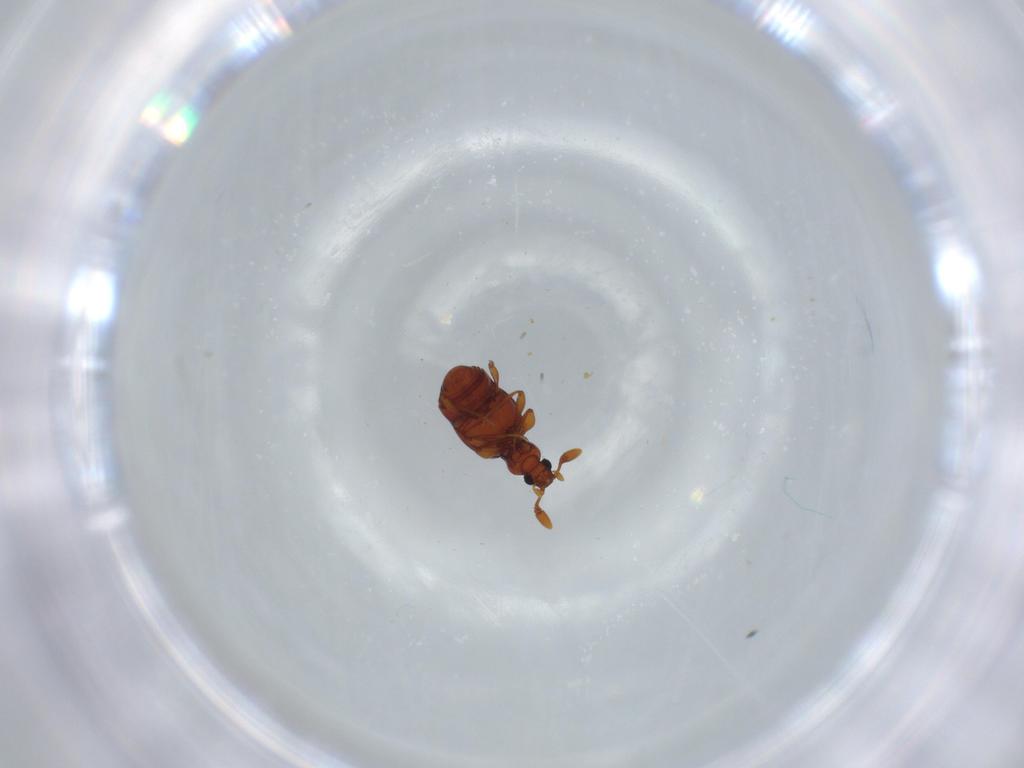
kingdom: Animalia
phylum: Arthropoda
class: Insecta
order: Coleoptera
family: Staphylinidae
